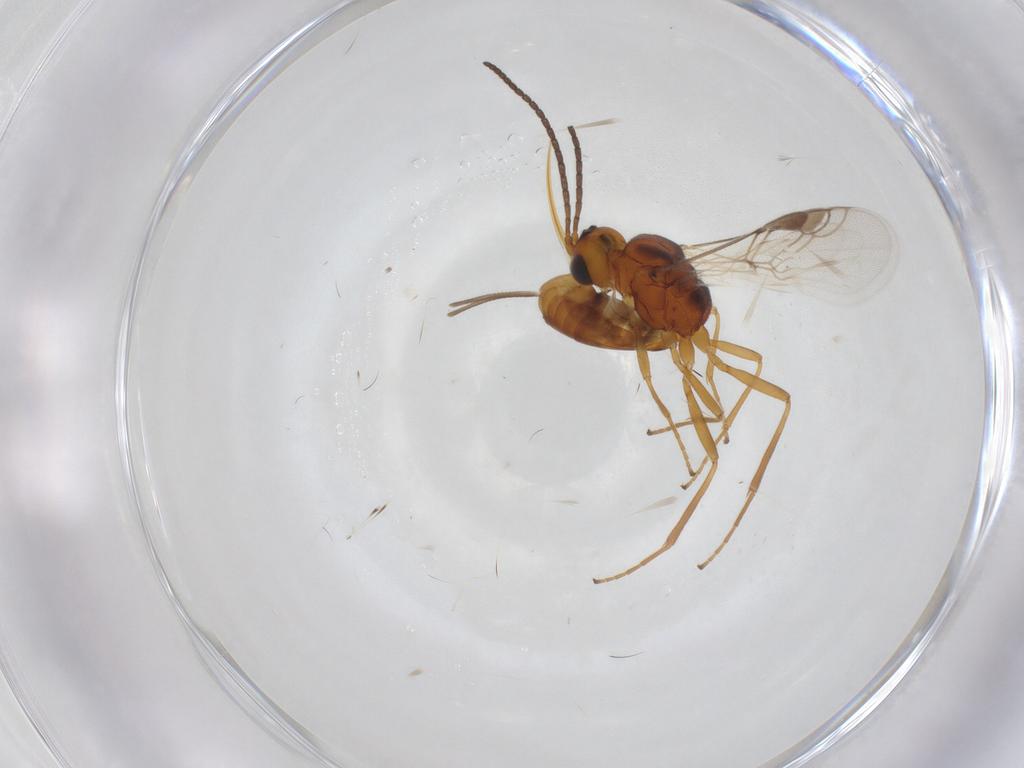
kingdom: Animalia
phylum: Arthropoda
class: Insecta
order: Hymenoptera
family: Braconidae
